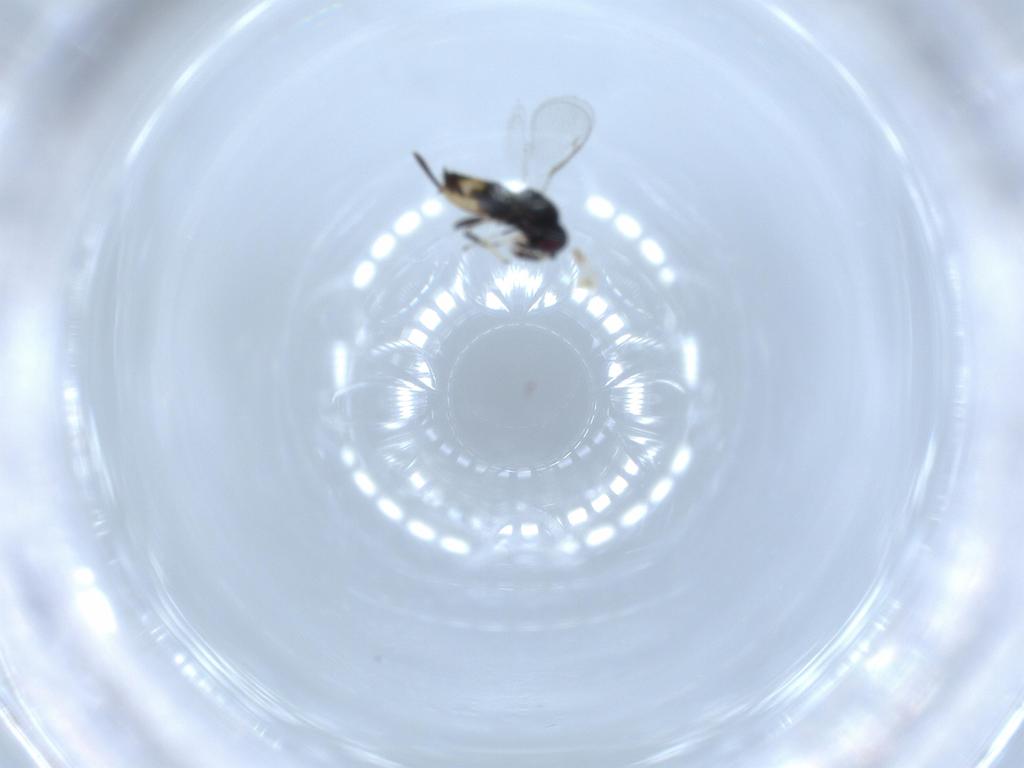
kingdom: Animalia
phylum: Arthropoda
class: Insecta
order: Hymenoptera
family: Pirenidae
